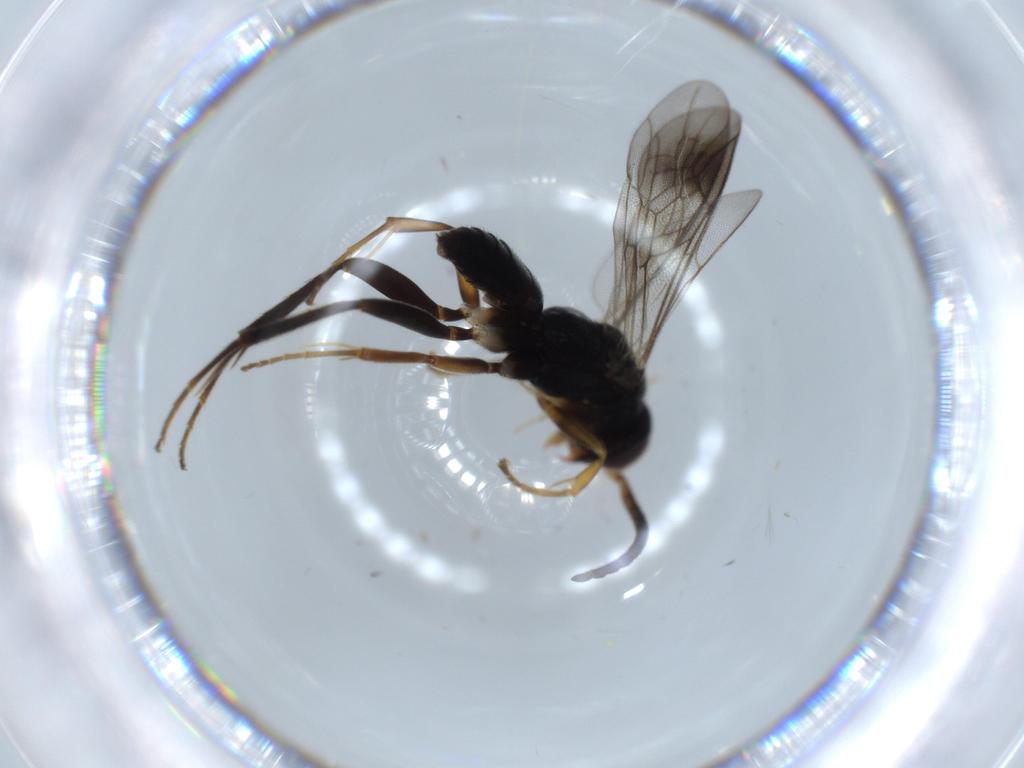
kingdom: Animalia
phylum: Arthropoda
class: Insecta
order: Hymenoptera
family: Pompilidae
